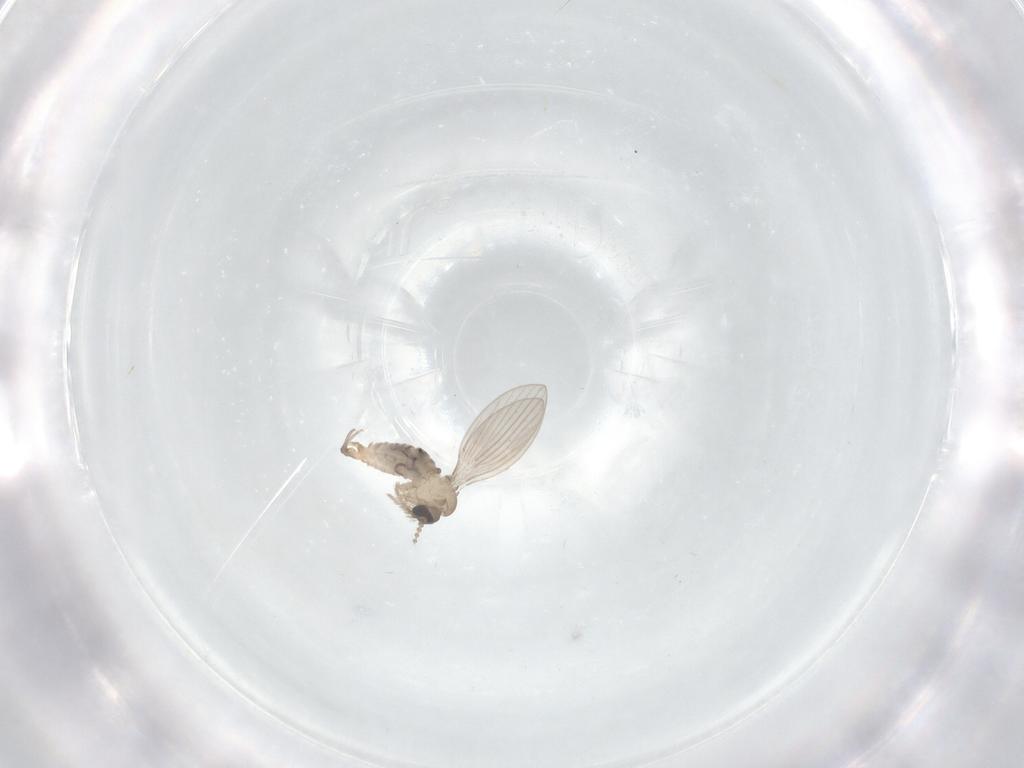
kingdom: Animalia
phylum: Arthropoda
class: Insecta
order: Diptera
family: Psychodidae
